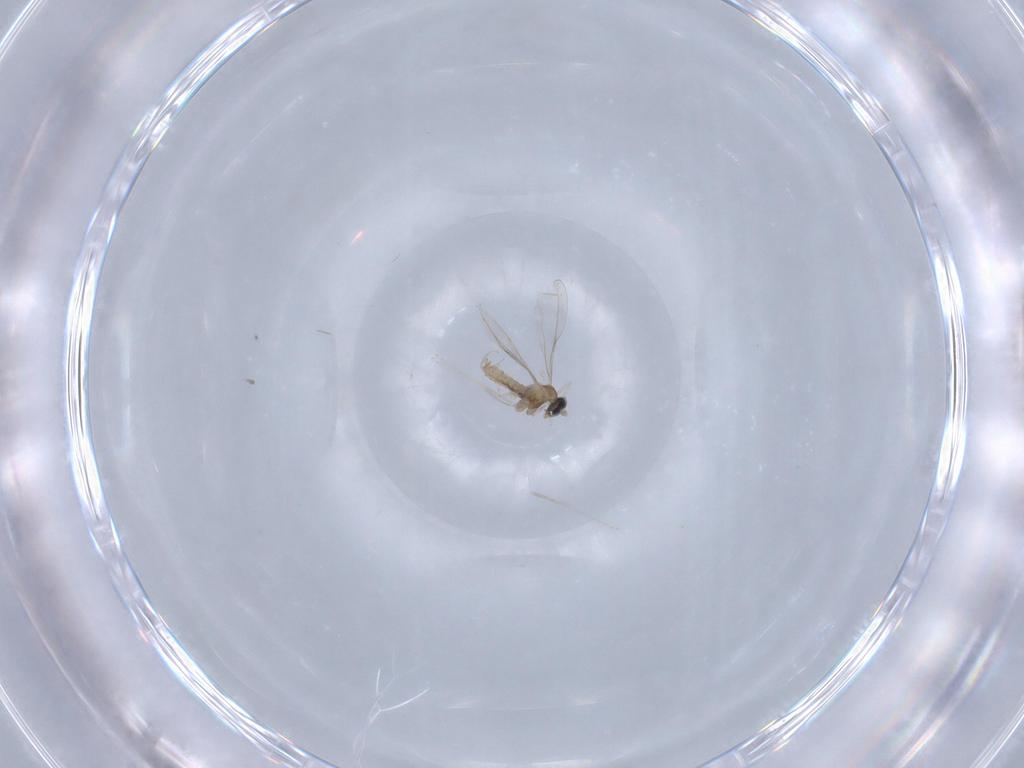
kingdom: Animalia
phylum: Arthropoda
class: Insecta
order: Diptera
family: Cecidomyiidae
